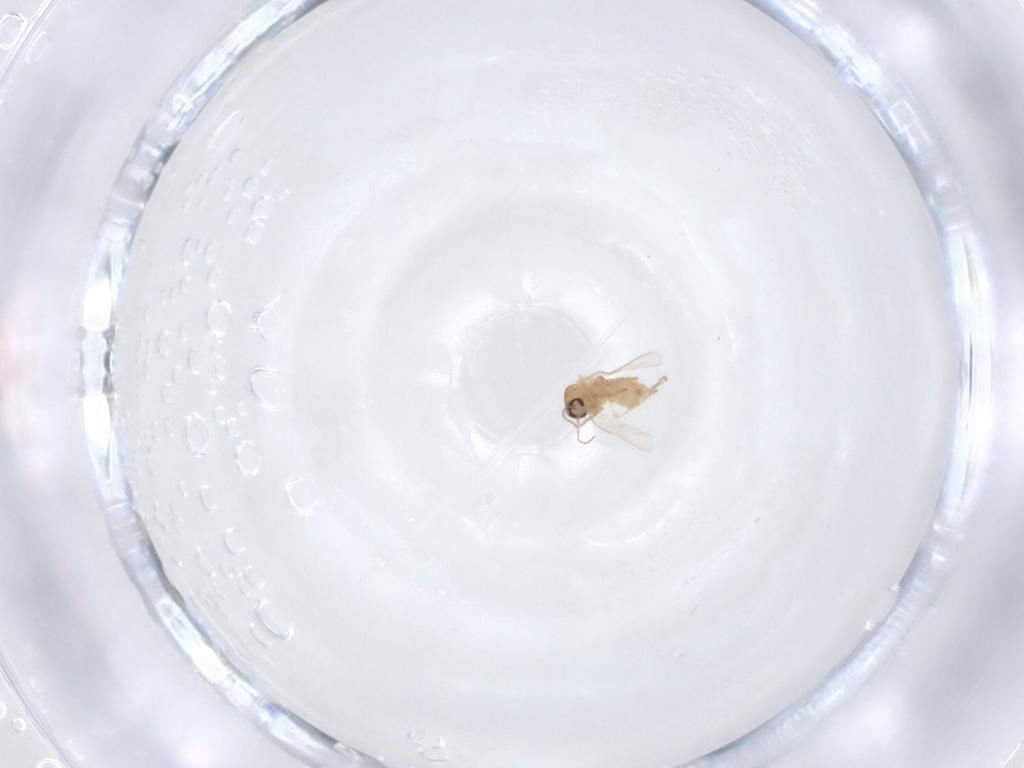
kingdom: Animalia
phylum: Arthropoda
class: Insecta
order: Diptera
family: Ceratopogonidae
